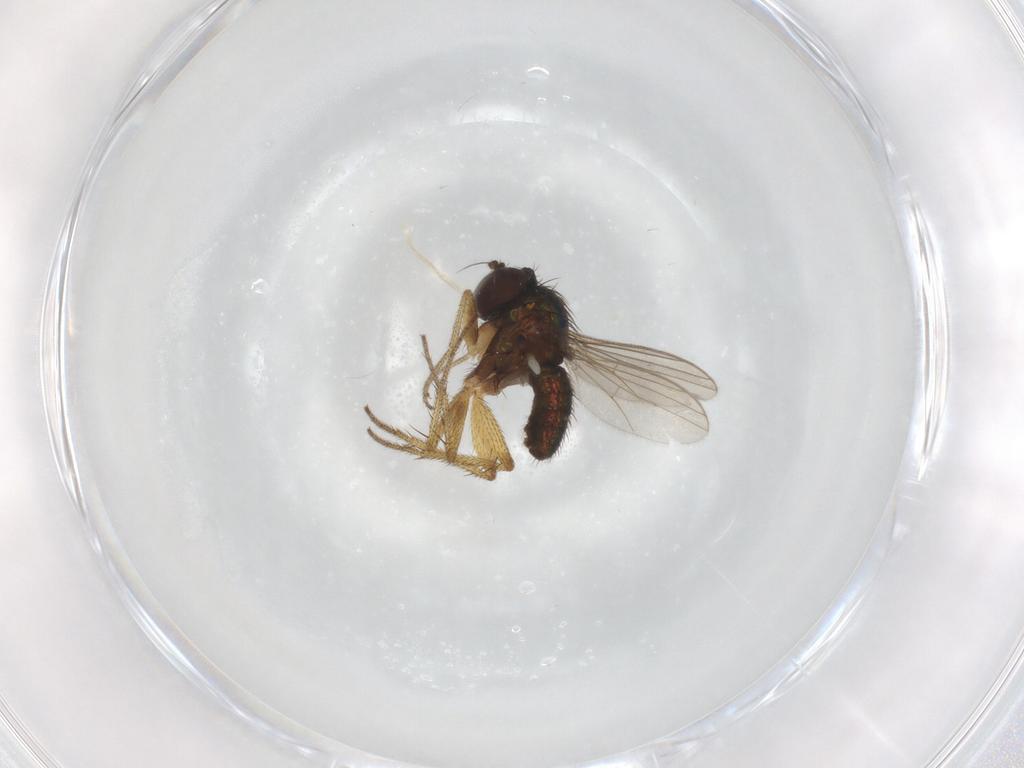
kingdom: Animalia
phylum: Arthropoda
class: Insecta
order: Diptera
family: Dolichopodidae
